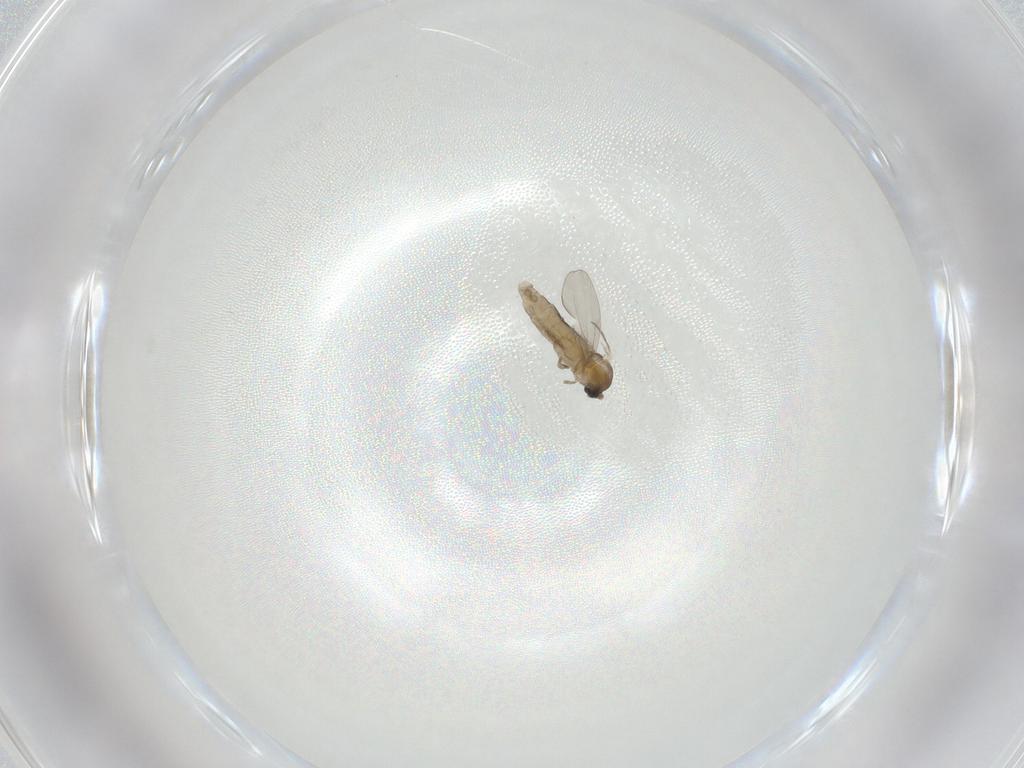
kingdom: Animalia
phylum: Arthropoda
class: Insecta
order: Diptera
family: Cecidomyiidae
